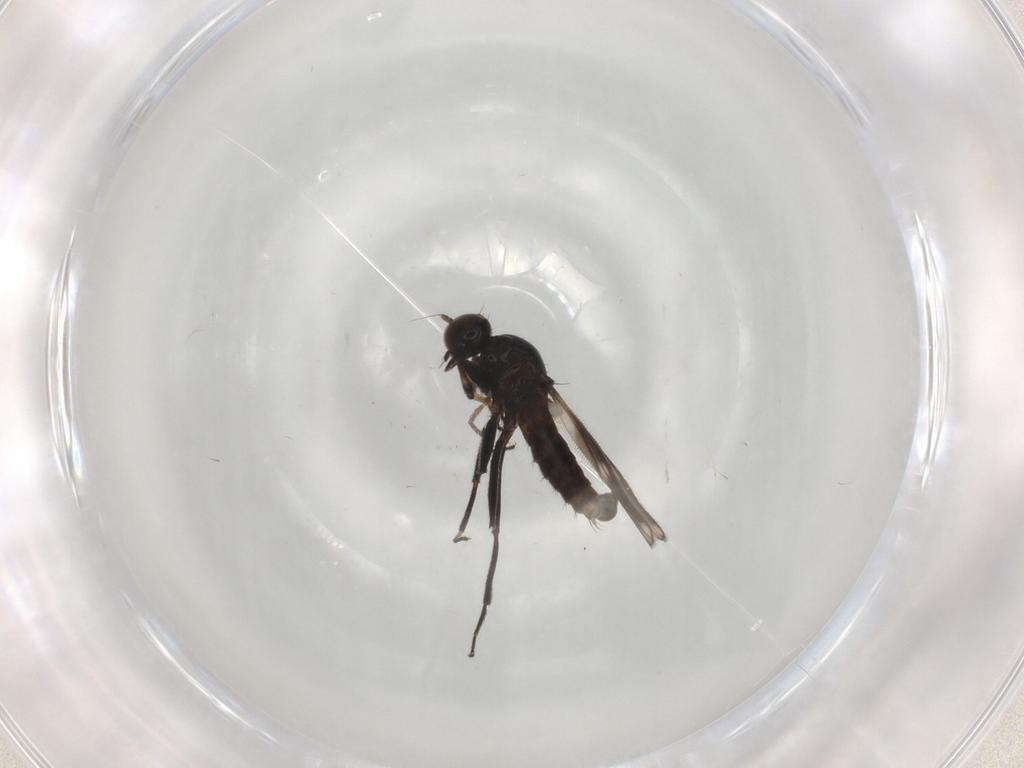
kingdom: Animalia
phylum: Arthropoda
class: Insecta
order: Diptera
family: Hybotidae
